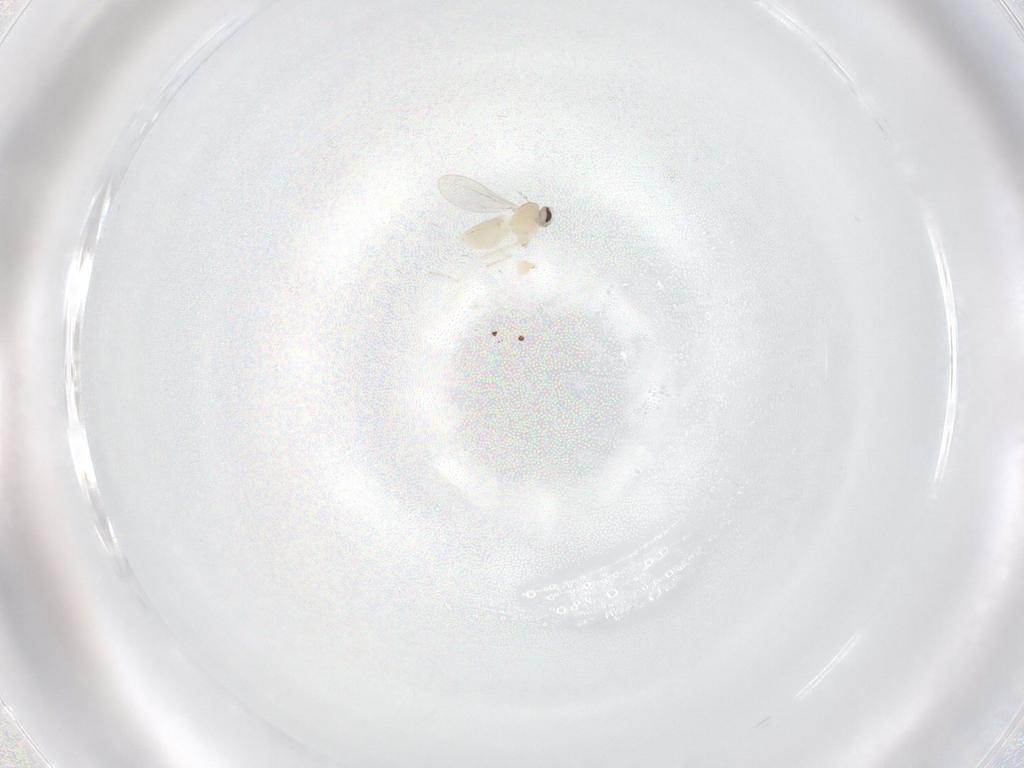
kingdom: Animalia
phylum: Arthropoda
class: Insecta
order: Diptera
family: Cecidomyiidae
